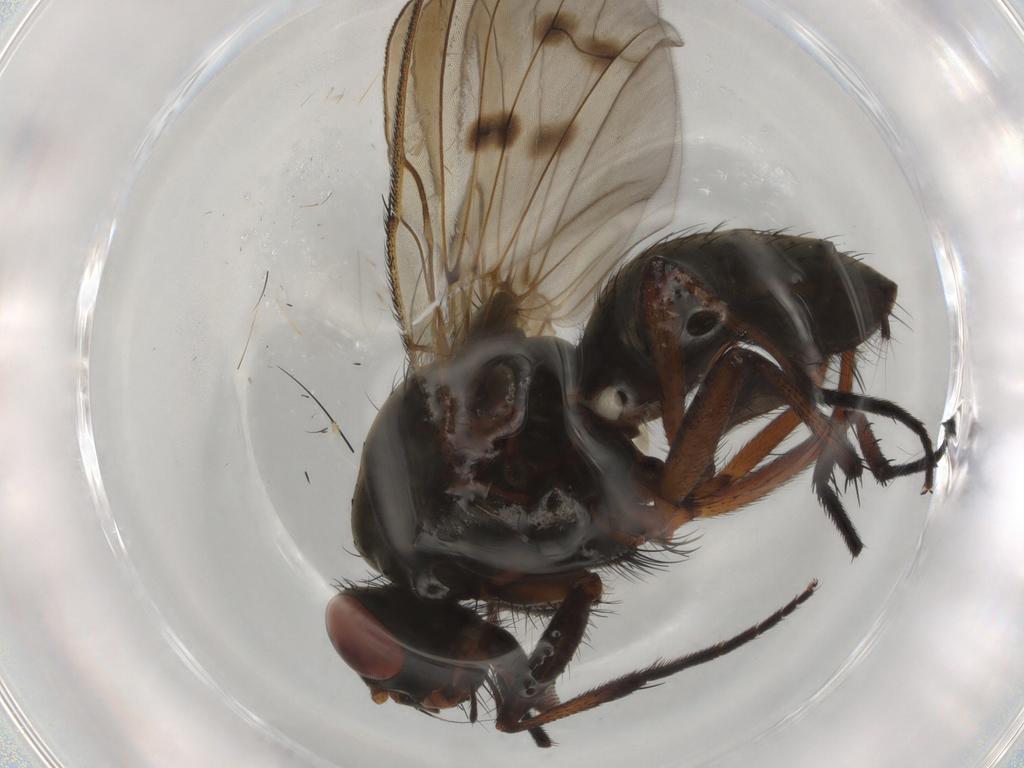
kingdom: Animalia
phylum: Arthropoda
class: Insecta
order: Diptera
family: Anthomyiidae
